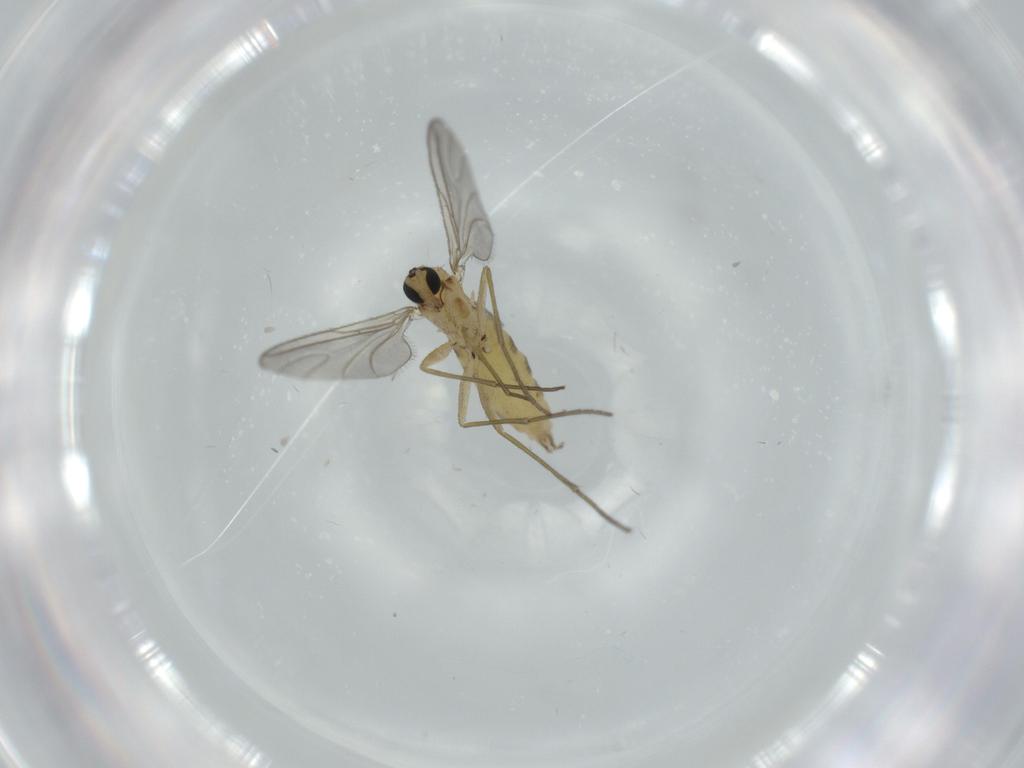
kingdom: Animalia
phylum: Arthropoda
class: Insecta
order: Diptera
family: Sciaridae
